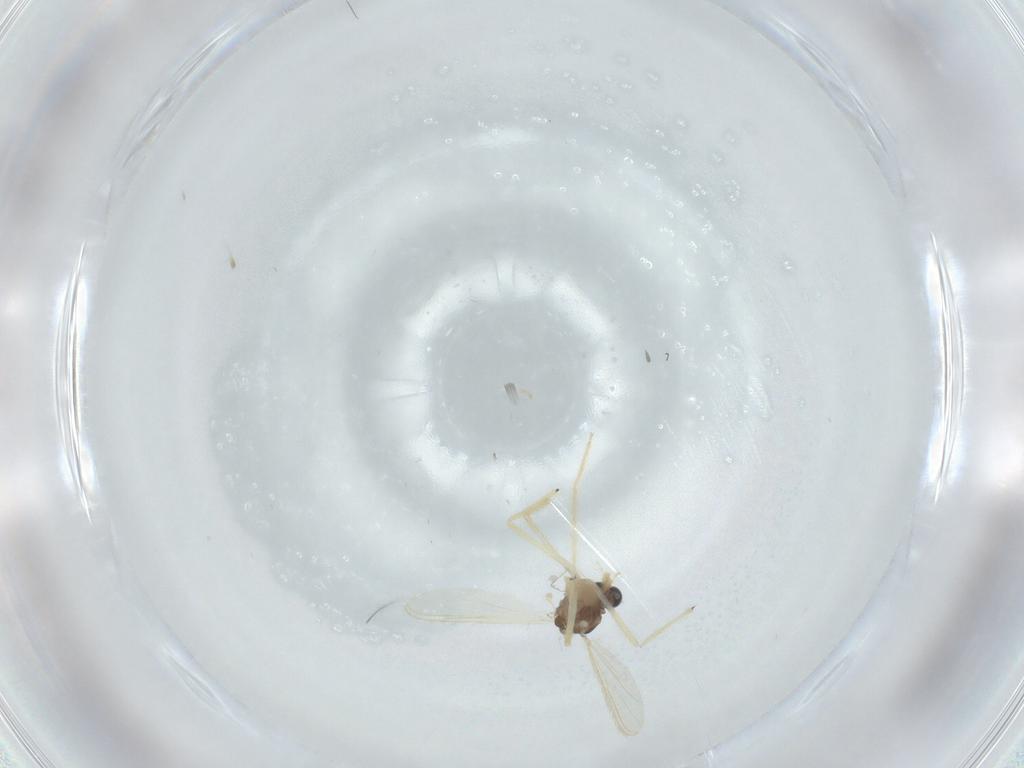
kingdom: Animalia
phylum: Arthropoda
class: Insecta
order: Diptera
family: Chironomidae
